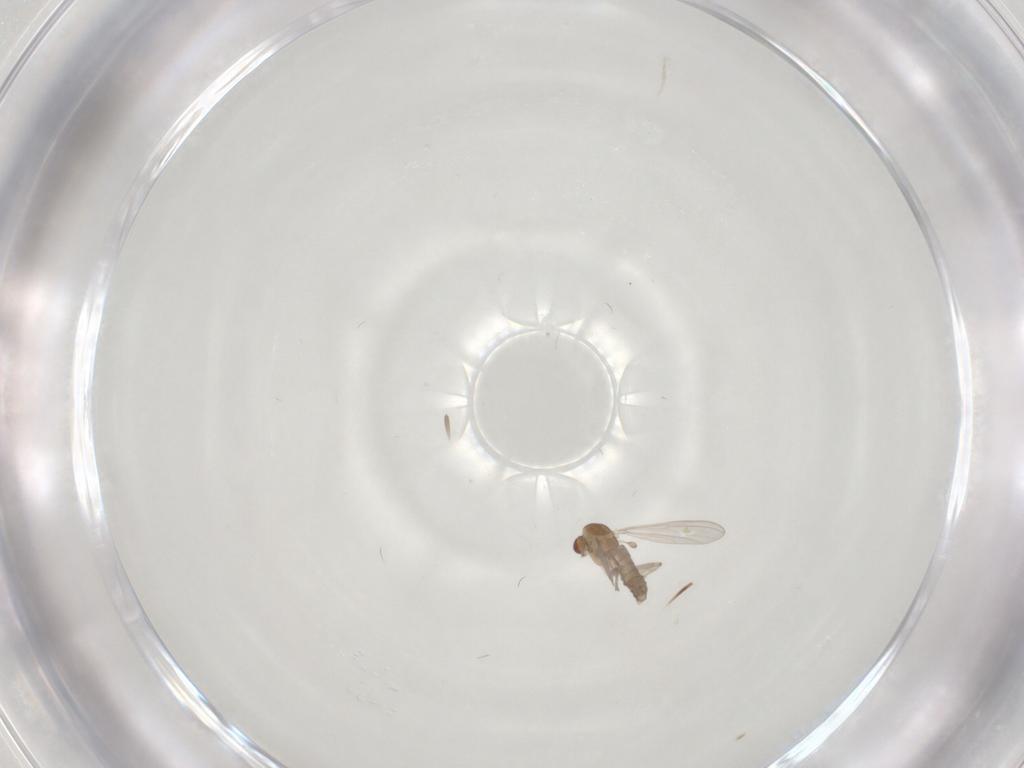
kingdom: Animalia
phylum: Arthropoda
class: Insecta
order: Diptera
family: Chironomidae
